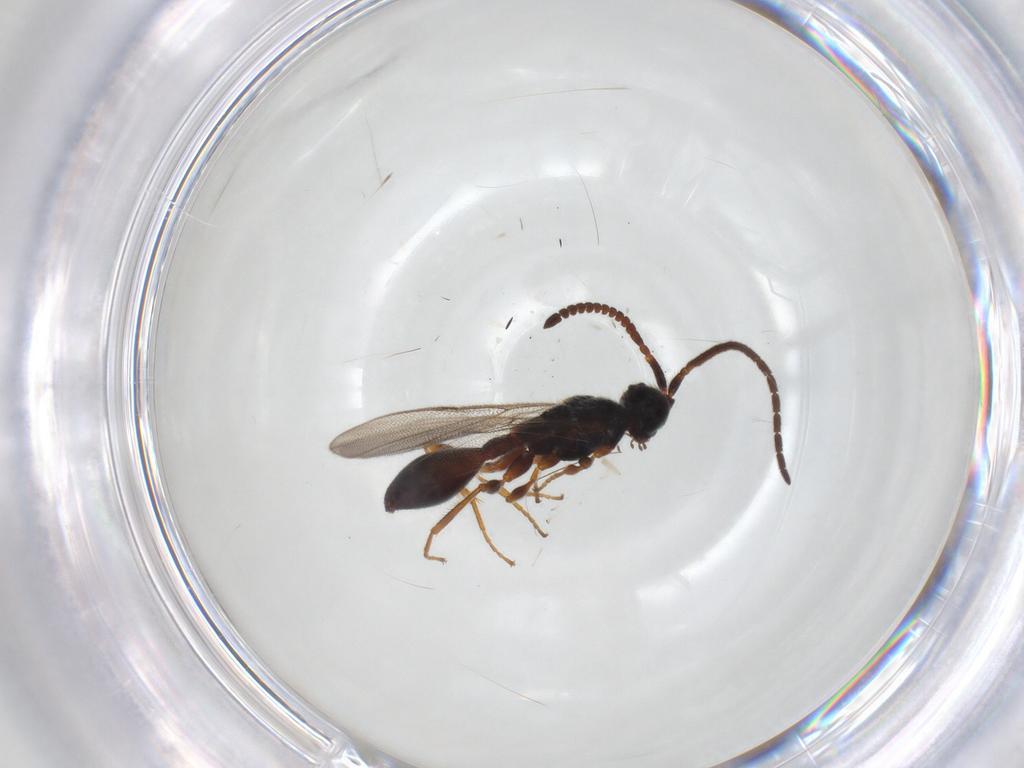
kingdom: Animalia
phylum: Arthropoda
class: Insecta
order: Hymenoptera
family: Diapriidae
